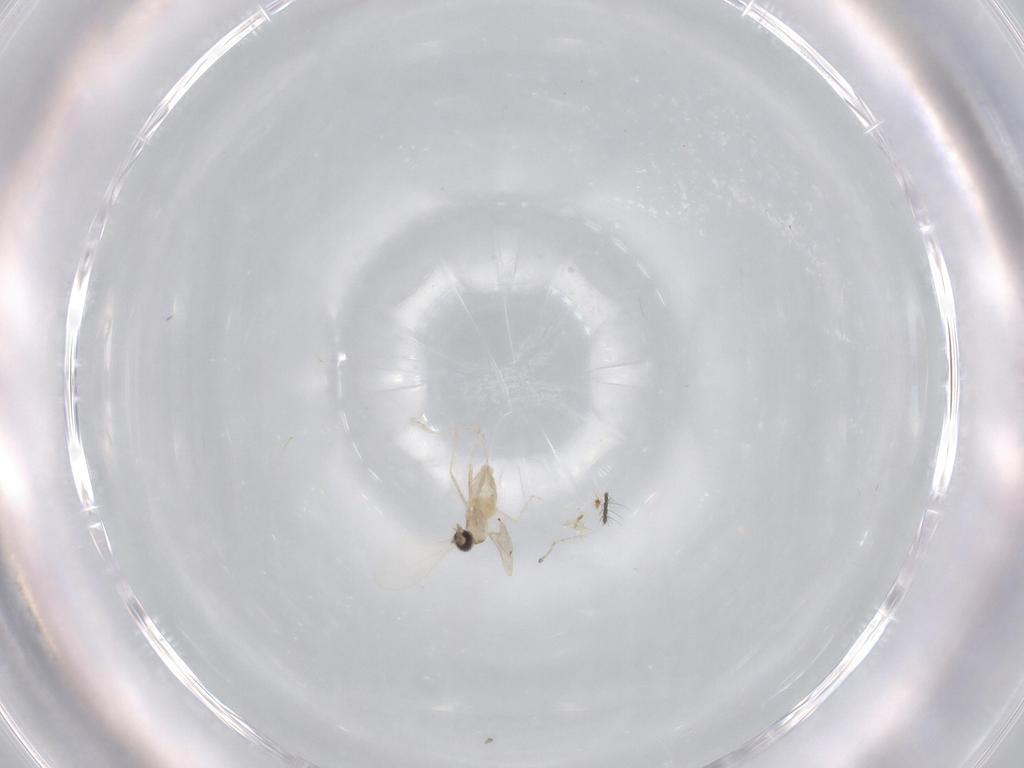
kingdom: Animalia
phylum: Arthropoda
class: Insecta
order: Diptera
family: Cecidomyiidae
